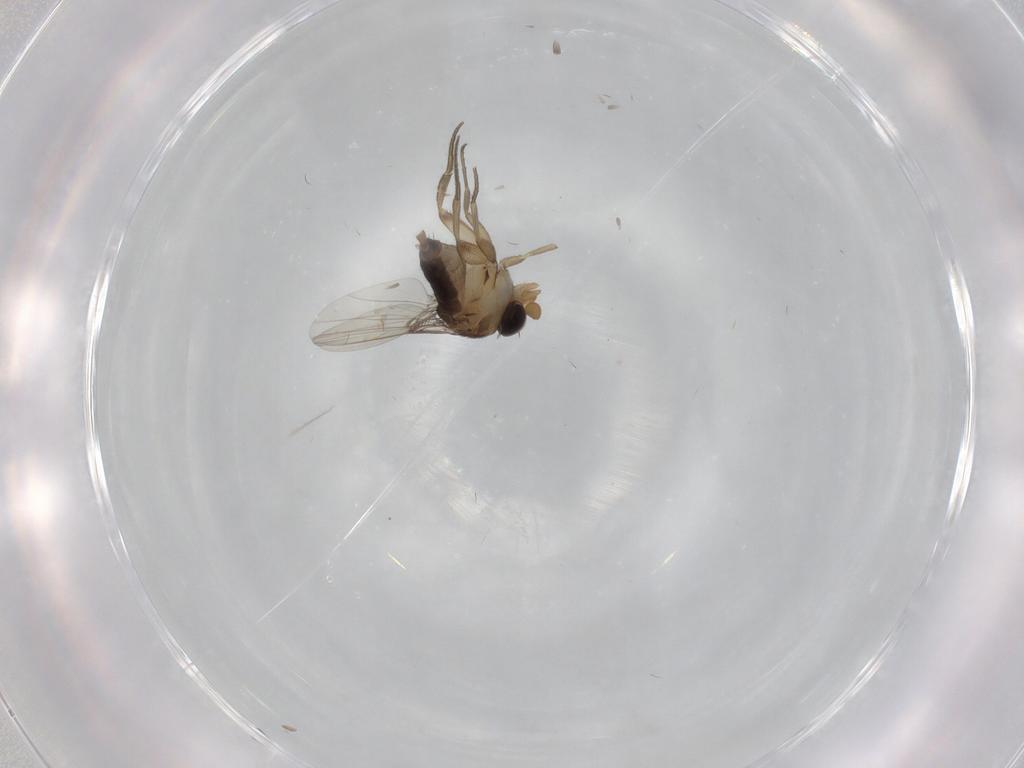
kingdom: Animalia
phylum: Arthropoda
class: Insecta
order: Diptera
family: Phoridae
